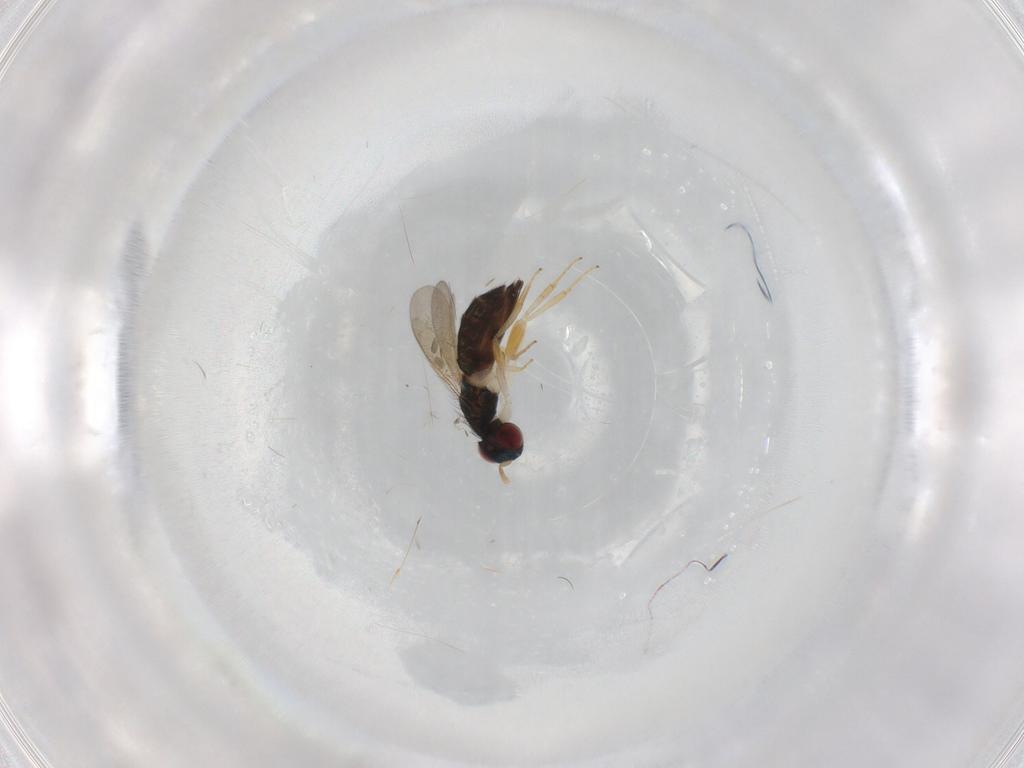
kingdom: Animalia
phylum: Arthropoda
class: Insecta
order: Hymenoptera
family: Eulophidae
